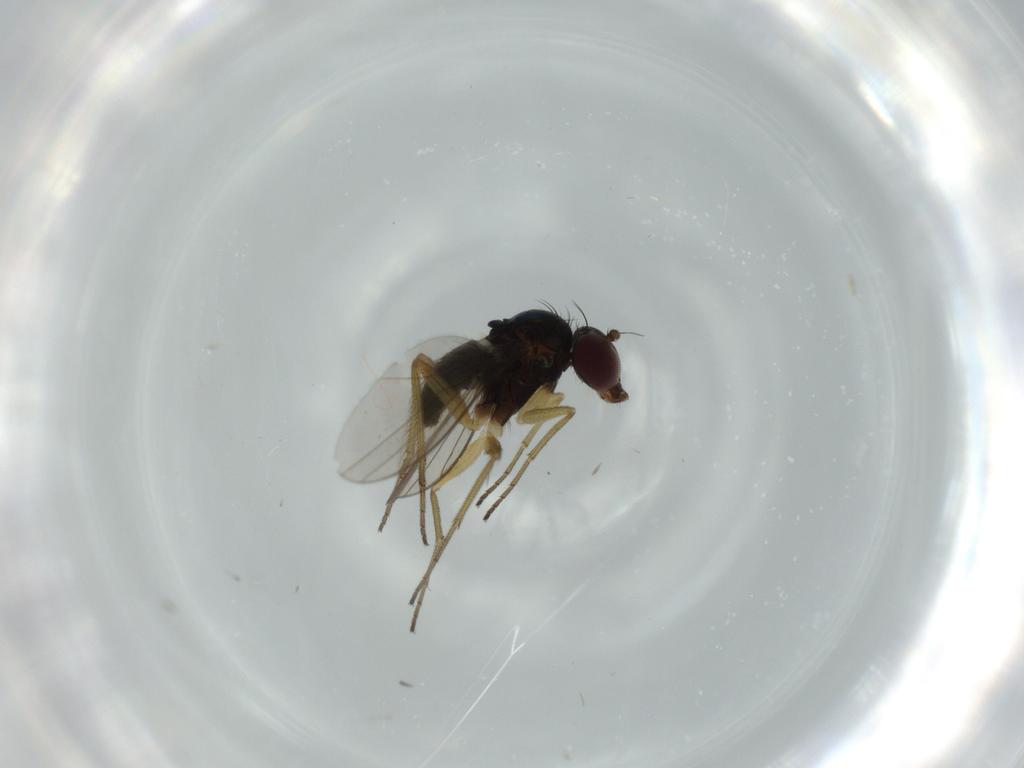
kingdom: Animalia
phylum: Arthropoda
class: Insecta
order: Diptera
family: Dolichopodidae
